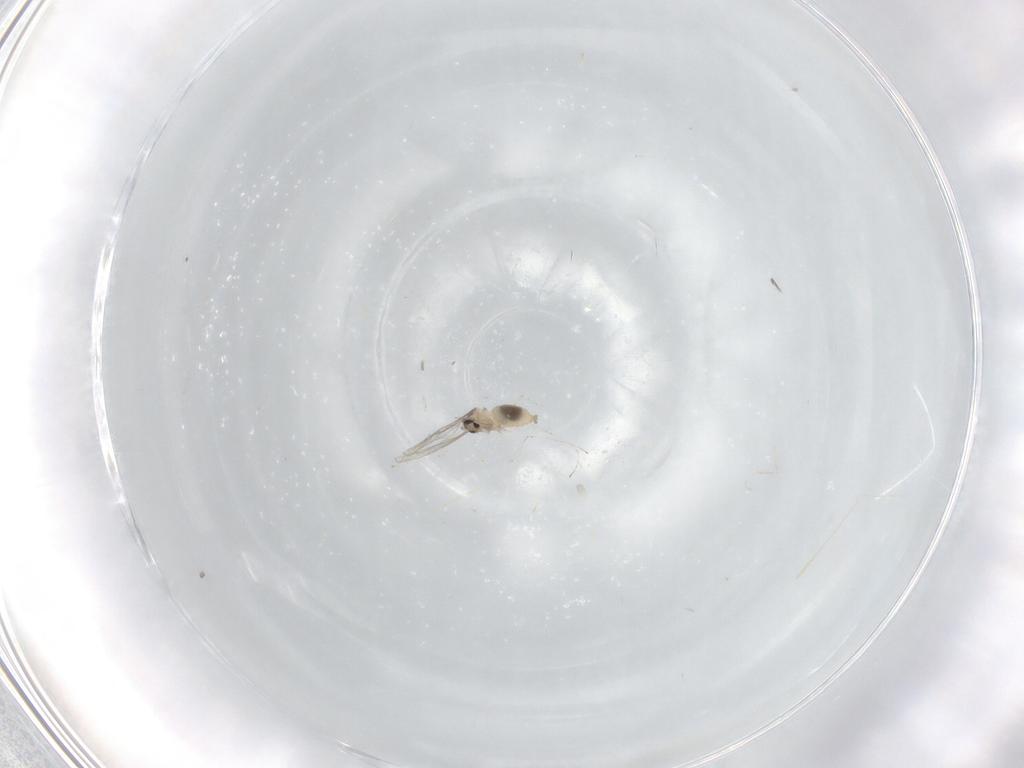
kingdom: Animalia
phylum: Arthropoda
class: Insecta
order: Diptera
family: Cecidomyiidae
